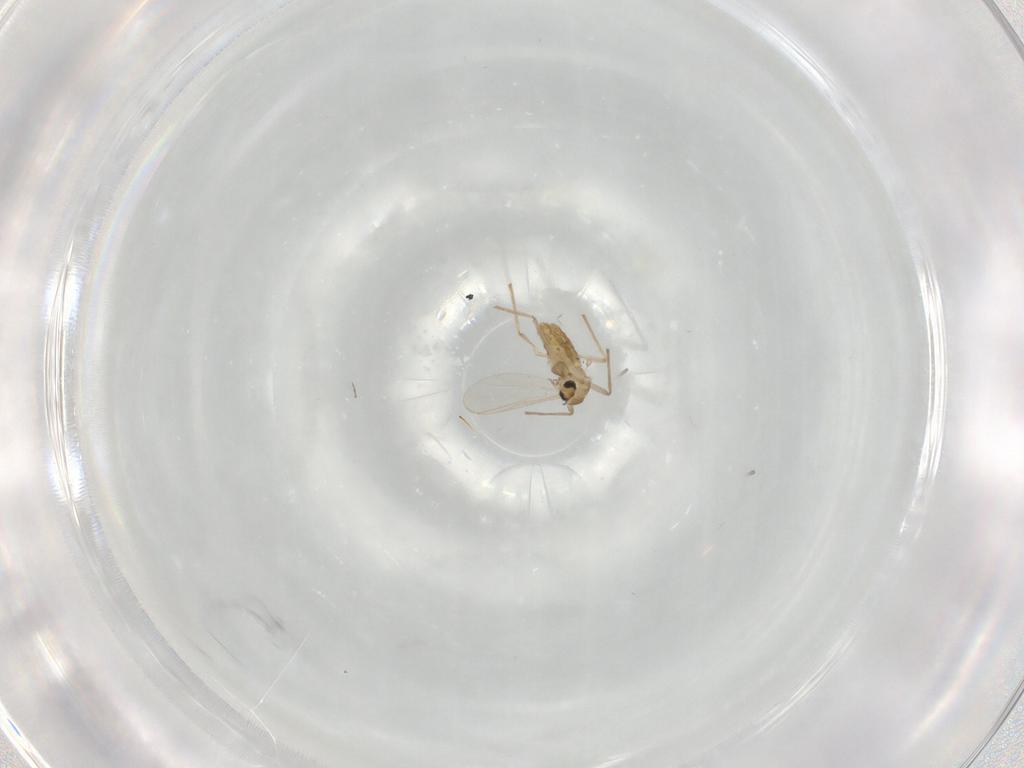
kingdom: Animalia
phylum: Arthropoda
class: Insecta
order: Diptera
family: Chironomidae
